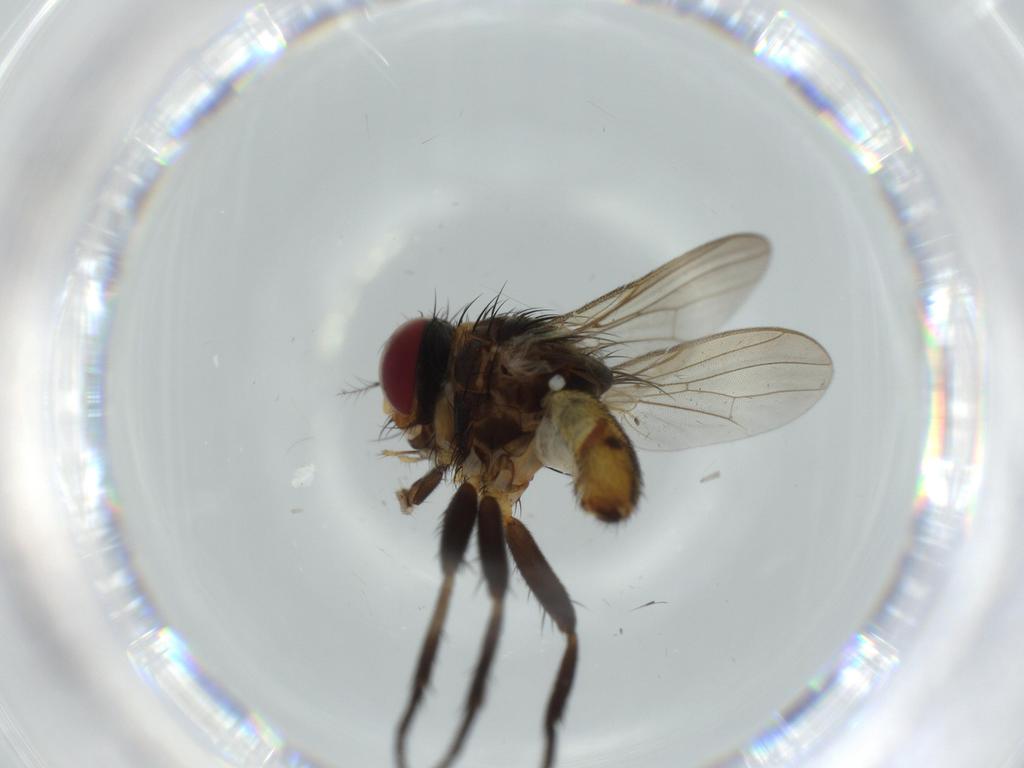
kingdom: Animalia
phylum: Arthropoda
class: Insecta
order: Diptera
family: Anthomyiidae
